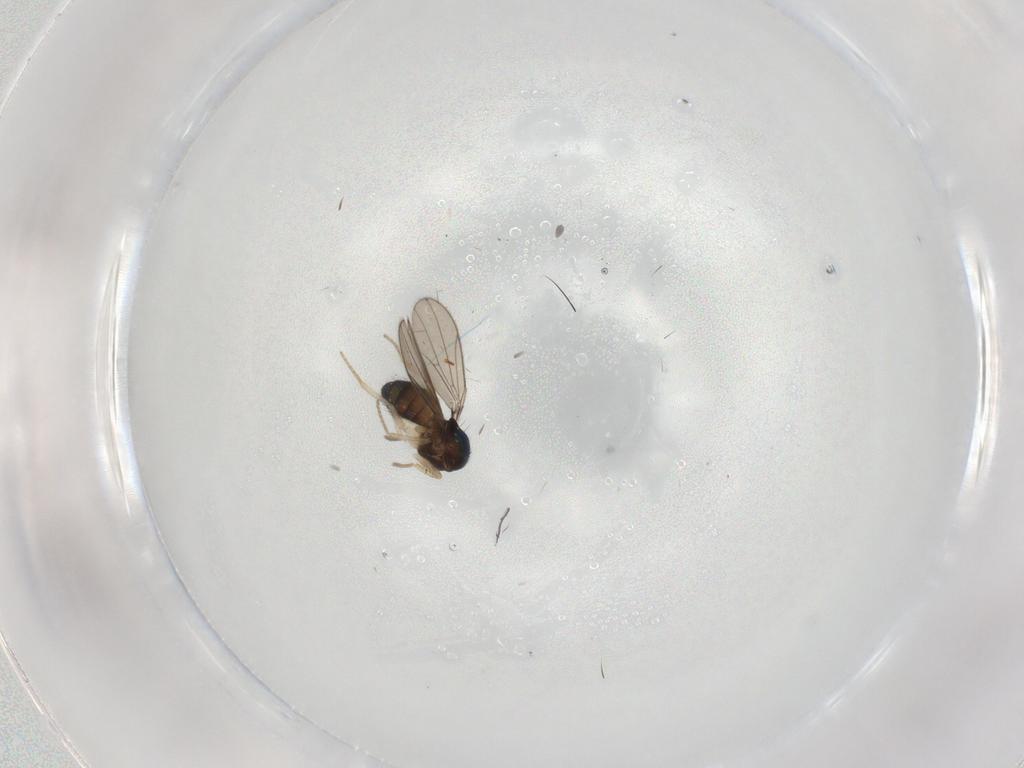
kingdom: Animalia
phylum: Arthropoda
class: Insecta
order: Diptera
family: Drosophilidae
